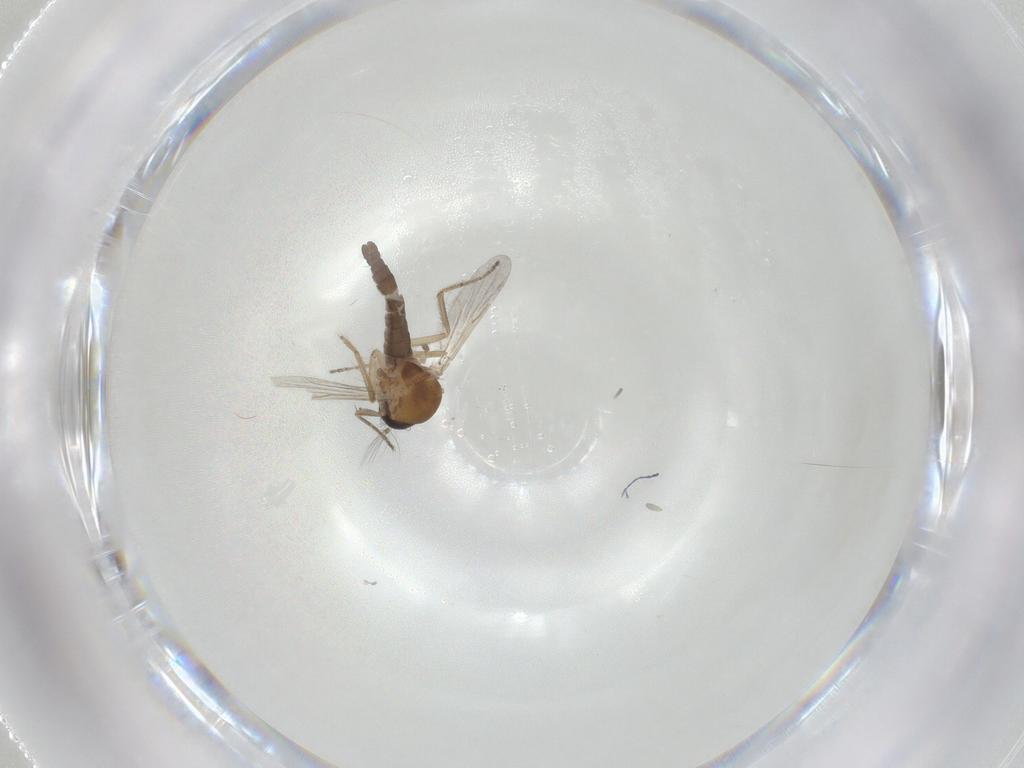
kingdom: Animalia
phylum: Arthropoda
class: Insecta
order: Diptera
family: Ceratopogonidae
